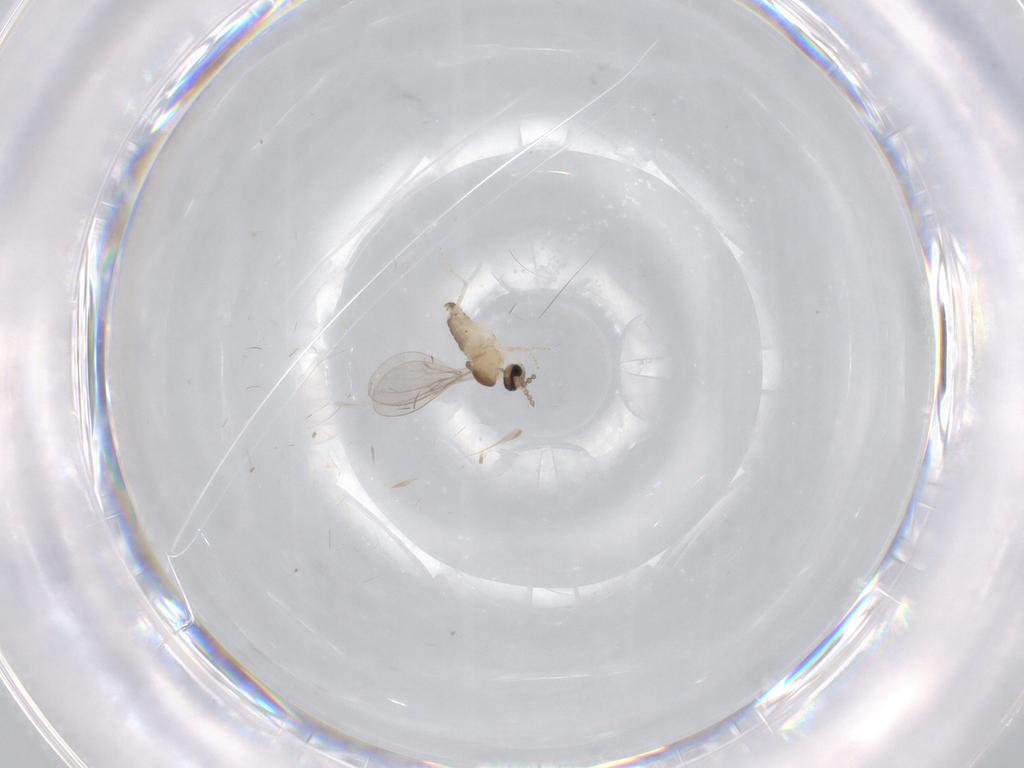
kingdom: Animalia
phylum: Arthropoda
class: Insecta
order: Diptera
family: Cecidomyiidae
